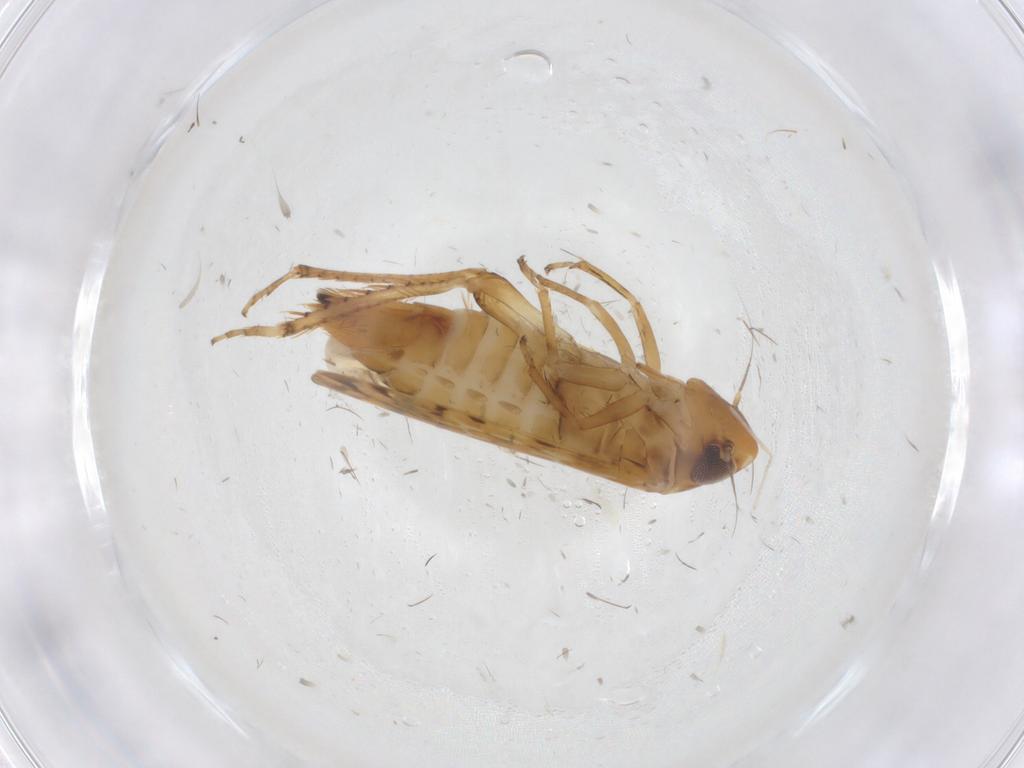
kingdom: Animalia
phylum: Arthropoda
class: Insecta
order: Hemiptera
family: Cicadellidae
